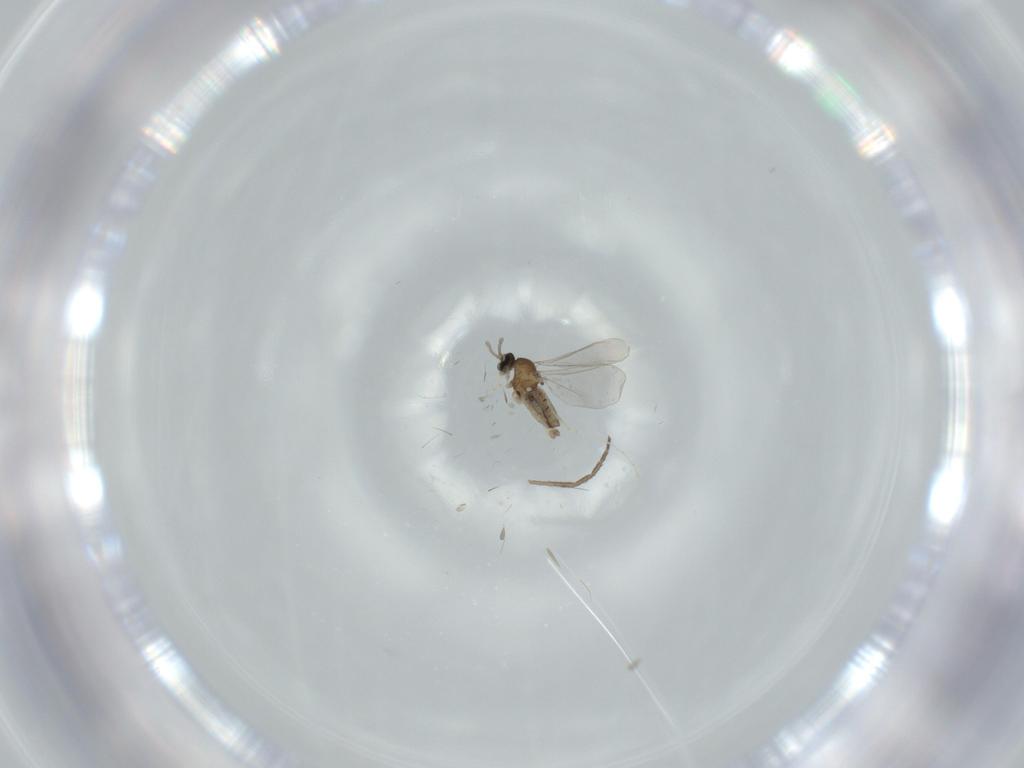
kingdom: Animalia
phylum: Arthropoda
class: Insecta
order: Diptera
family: Cecidomyiidae
